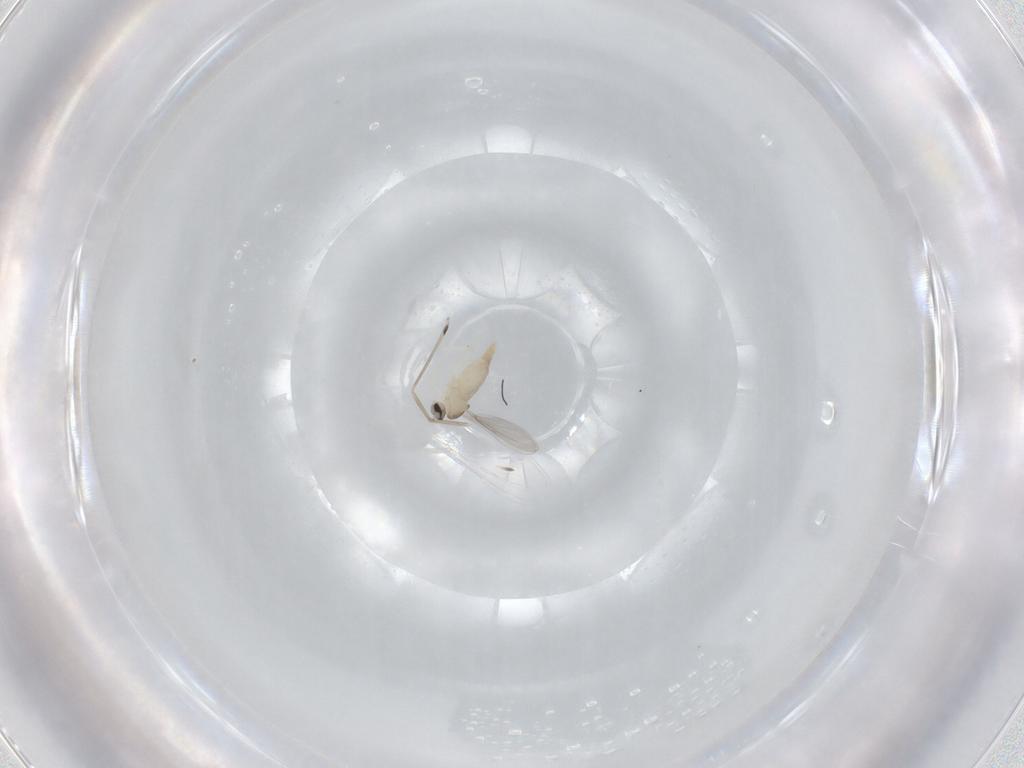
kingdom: Animalia
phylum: Arthropoda
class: Insecta
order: Diptera
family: Cecidomyiidae
